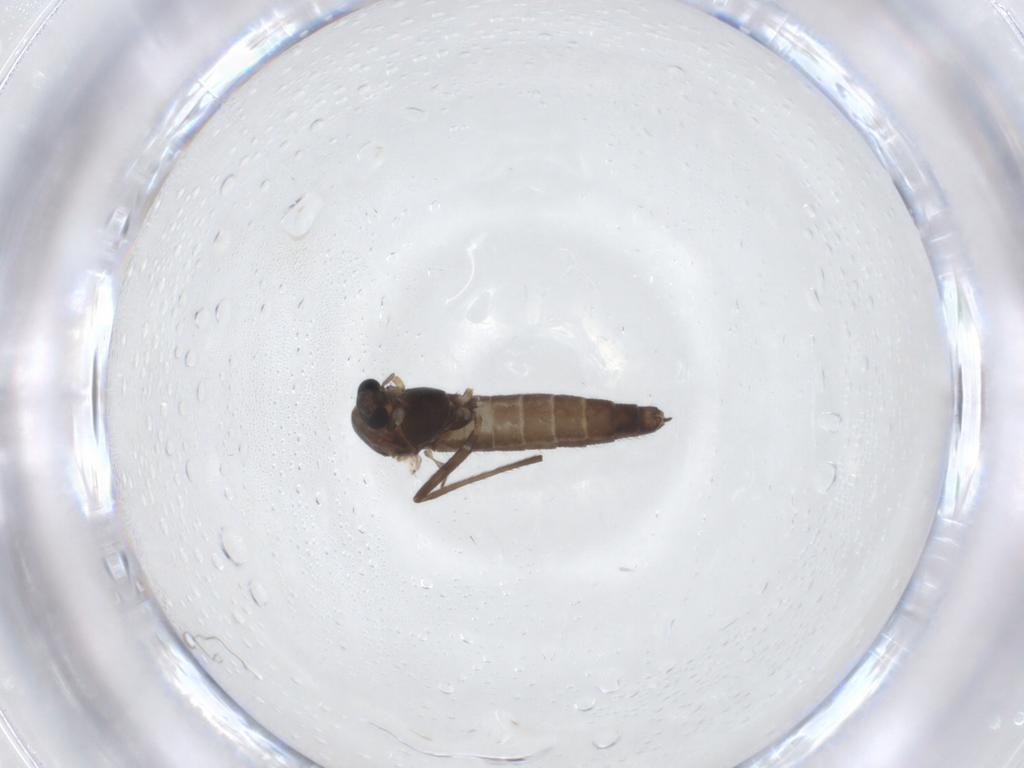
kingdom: Animalia
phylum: Arthropoda
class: Insecta
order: Diptera
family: Chironomidae
